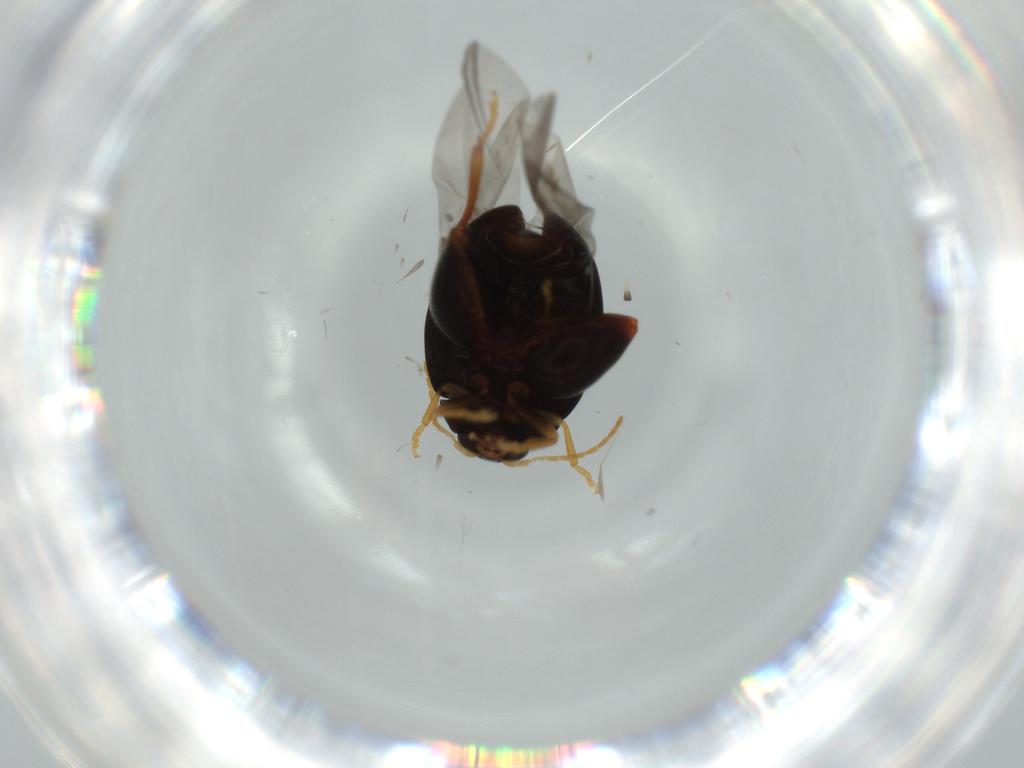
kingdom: Animalia
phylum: Arthropoda
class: Insecta
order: Coleoptera
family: Chrysomelidae
